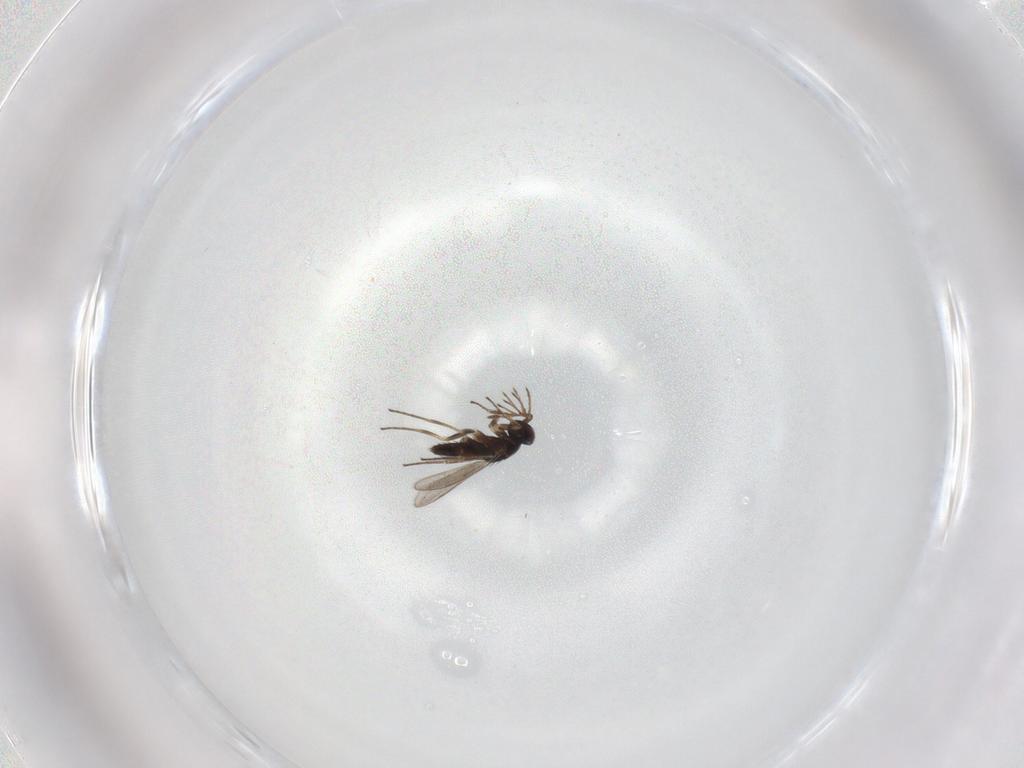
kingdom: Animalia
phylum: Arthropoda
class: Insecta
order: Hymenoptera
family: Eulophidae
